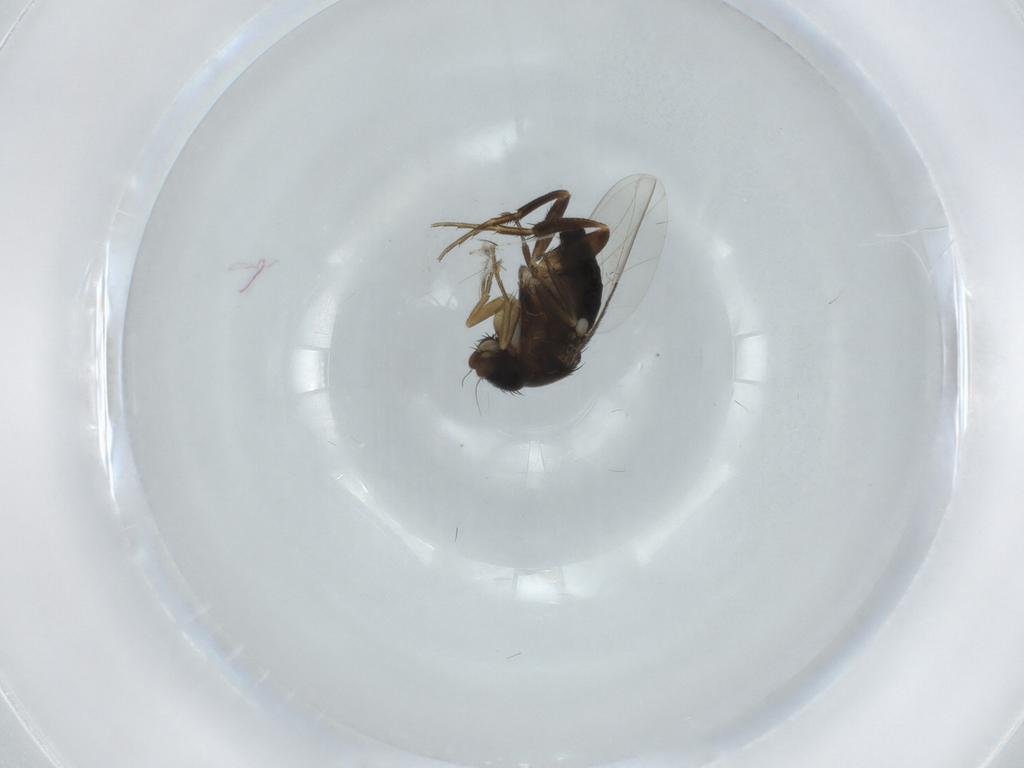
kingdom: Animalia
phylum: Arthropoda
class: Insecta
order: Diptera
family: Phoridae
